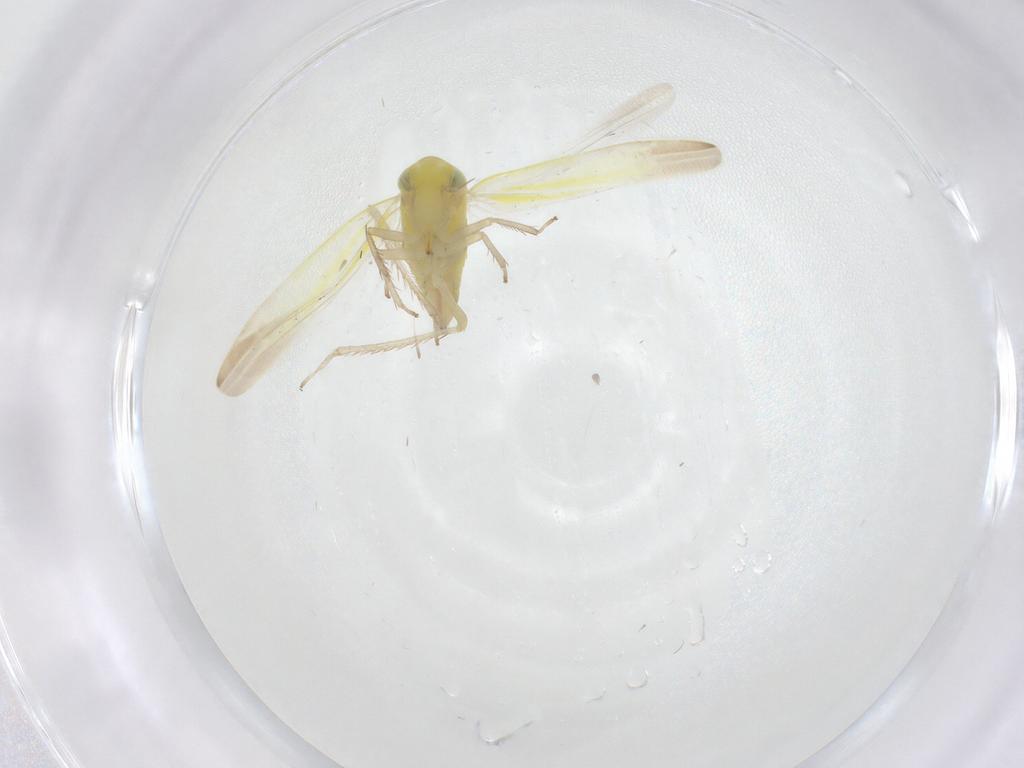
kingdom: Animalia
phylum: Arthropoda
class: Insecta
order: Hemiptera
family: Cicadellidae
